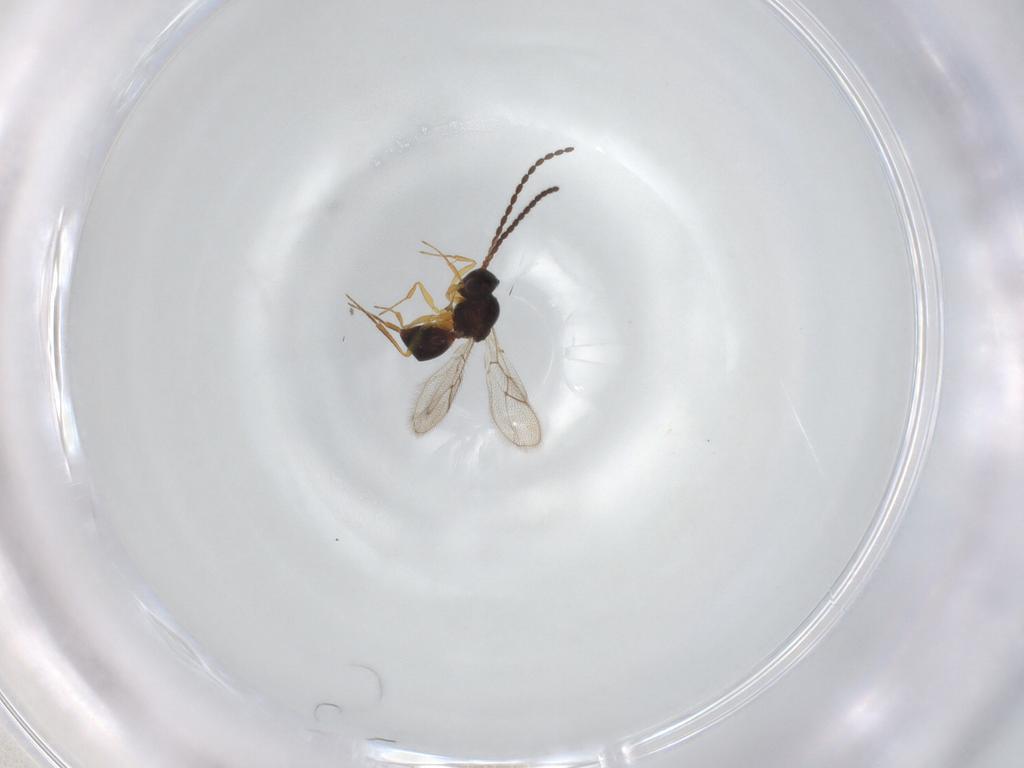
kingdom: Animalia
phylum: Arthropoda
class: Insecta
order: Hymenoptera
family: Figitidae
